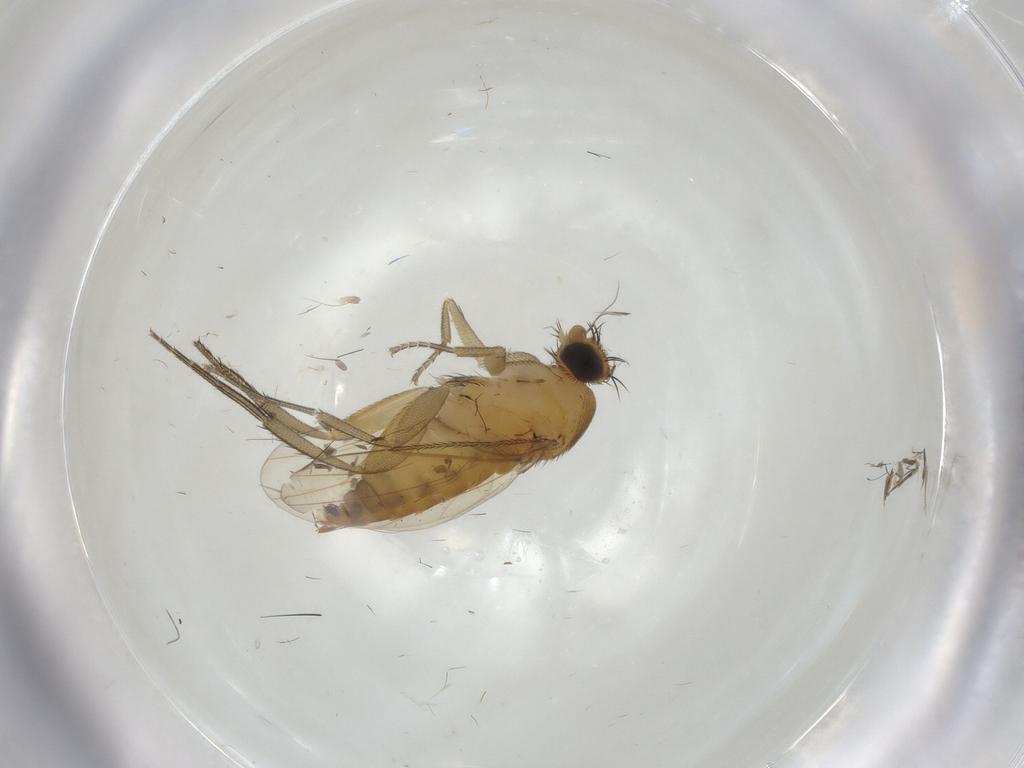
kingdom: Animalia
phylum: Arthropoda
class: Insecta
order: Diptera
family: Chironomidae
